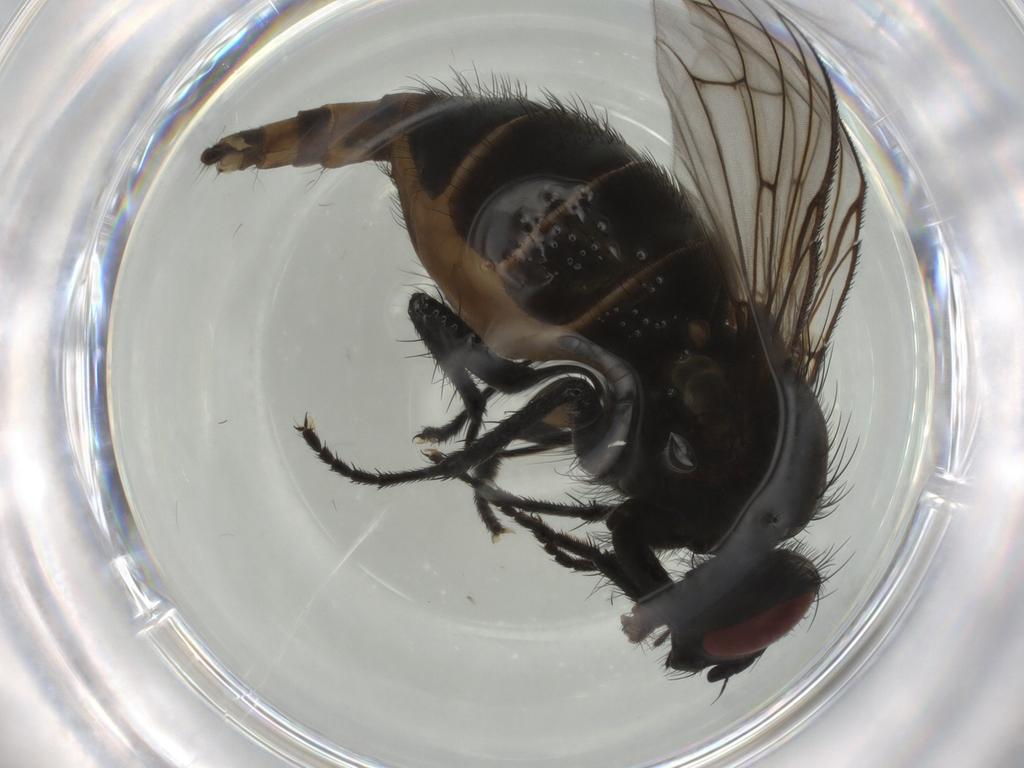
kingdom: Animalia
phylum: Arthropoda
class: Insecta
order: Diptera
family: Muscidae
